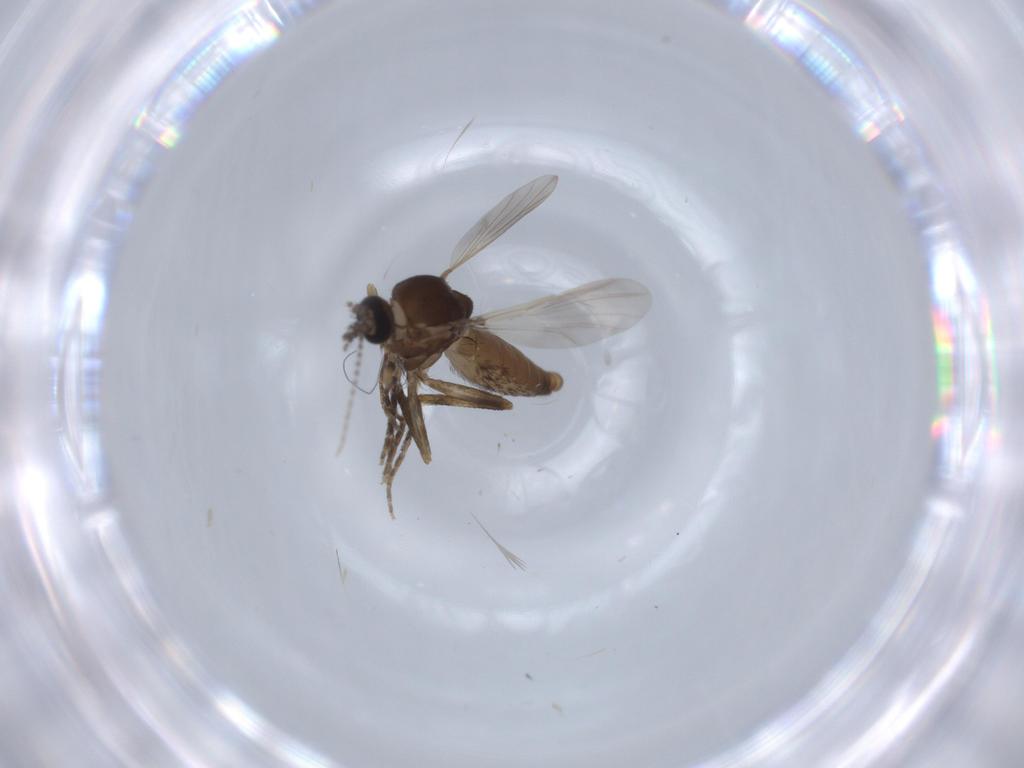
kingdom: Animalia
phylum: Arthropoda
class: Insecta
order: Diptera
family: Ceratopogonidae
